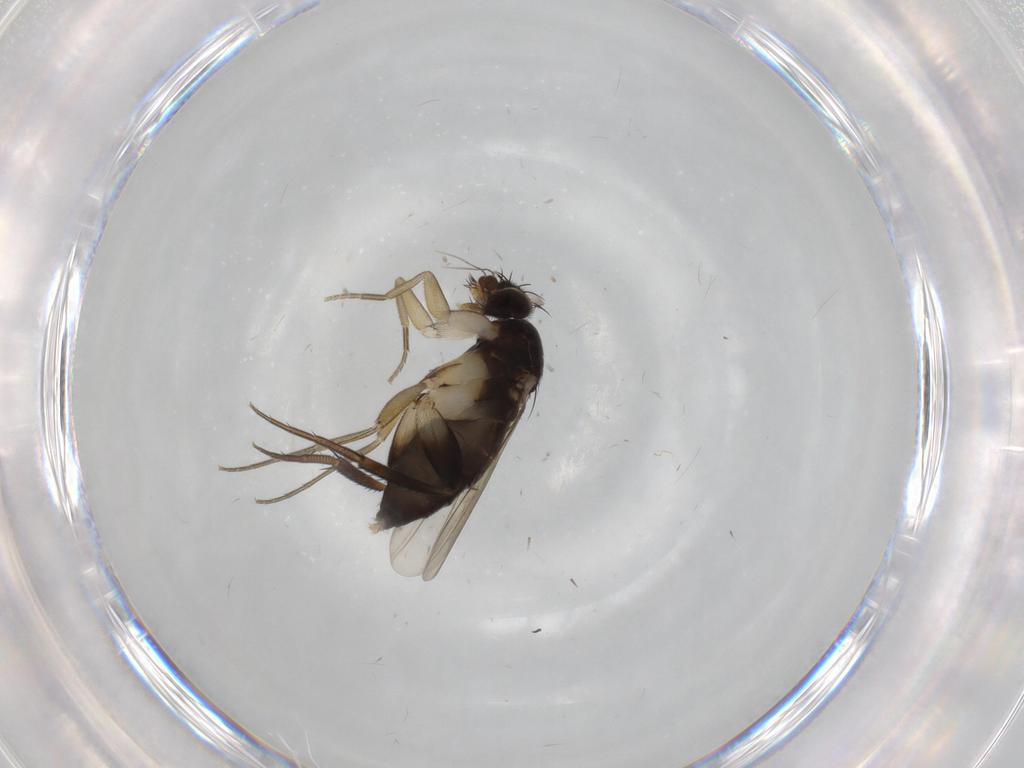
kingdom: Animalia
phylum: Arthropoda
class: Insecta
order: Diptera
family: Phoridae
